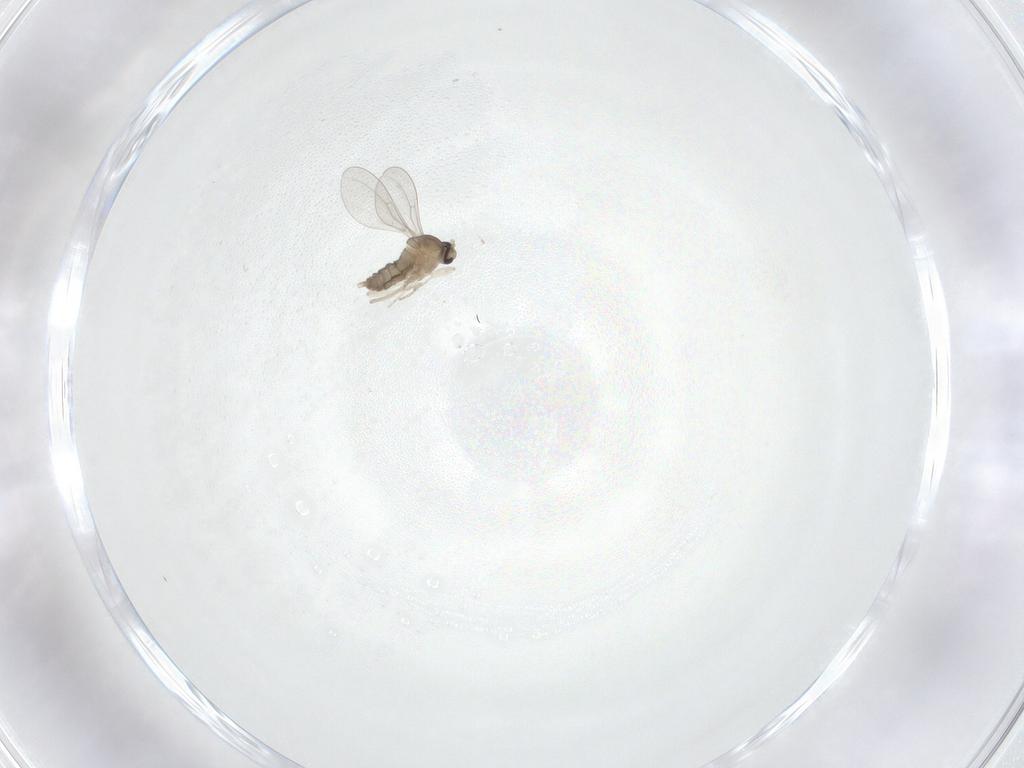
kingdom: Animalia
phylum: Arthropoda
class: Insecta
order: Diptera
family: Cecidomyiidae
